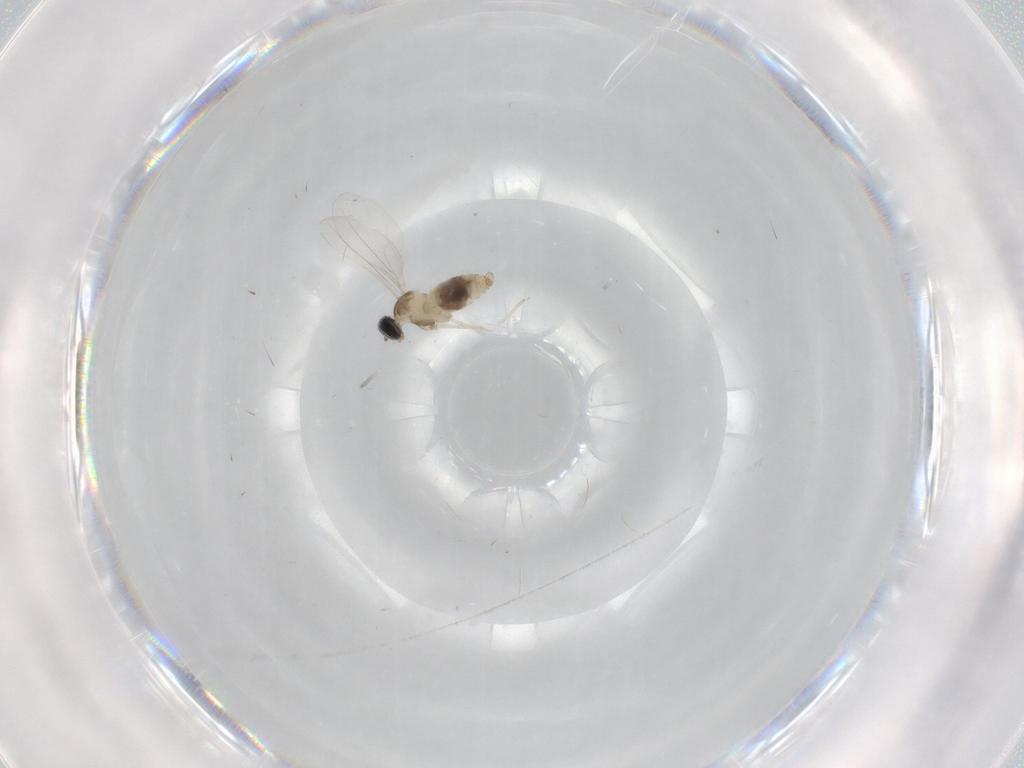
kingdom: Animalia
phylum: Arthropoda
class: Insecta
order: Diptera
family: Cecidomyiidae
